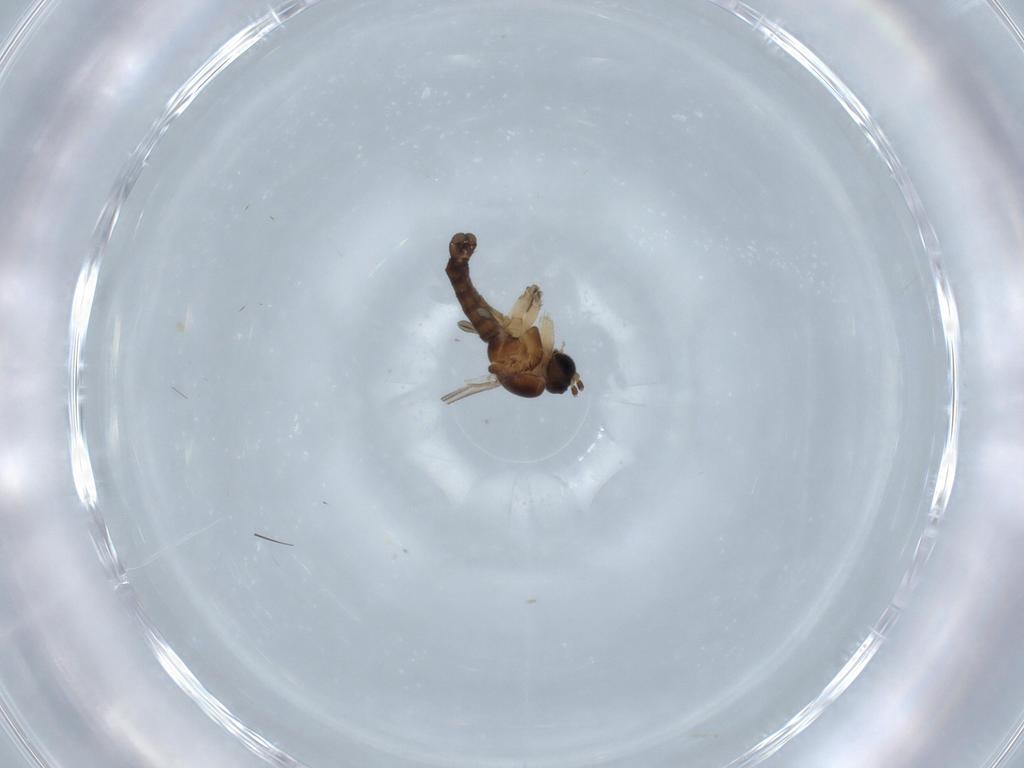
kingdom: Animalia
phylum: Arthropoda
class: Insecta
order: Diptera
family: Sciaridae
